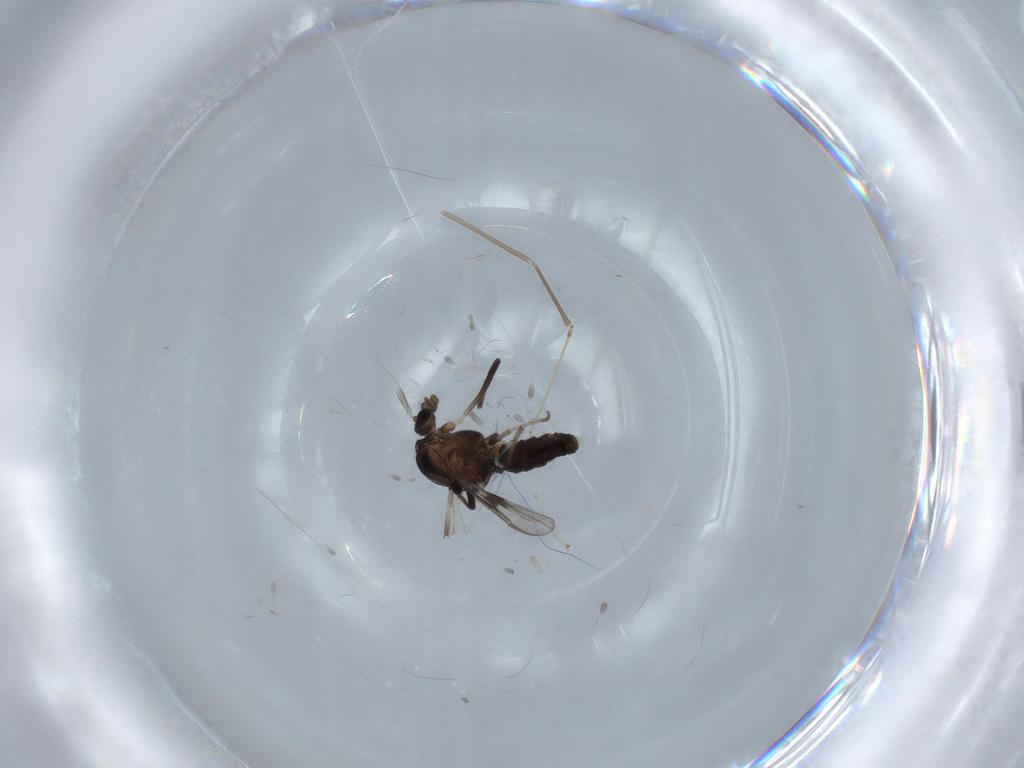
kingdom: Animalia
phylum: Arthropoda
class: Insecta
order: Diptera
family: Chironomidae
